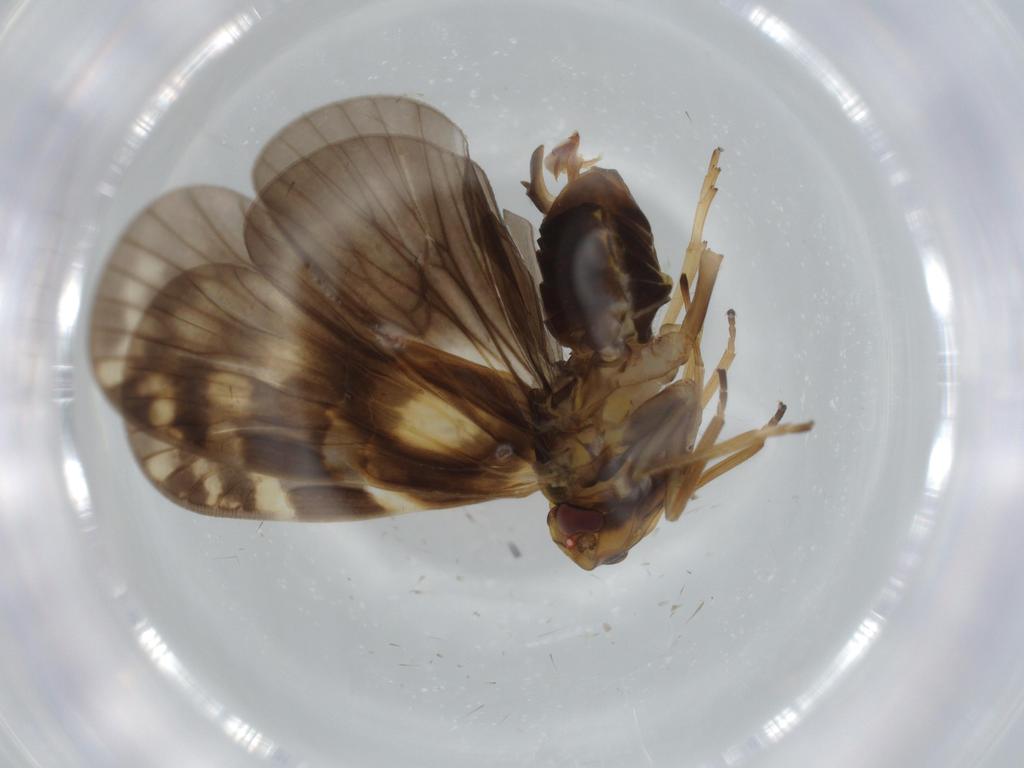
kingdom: Animalia
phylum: Arthropoda
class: Insecta
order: Hemiptera
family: Cixiidae
